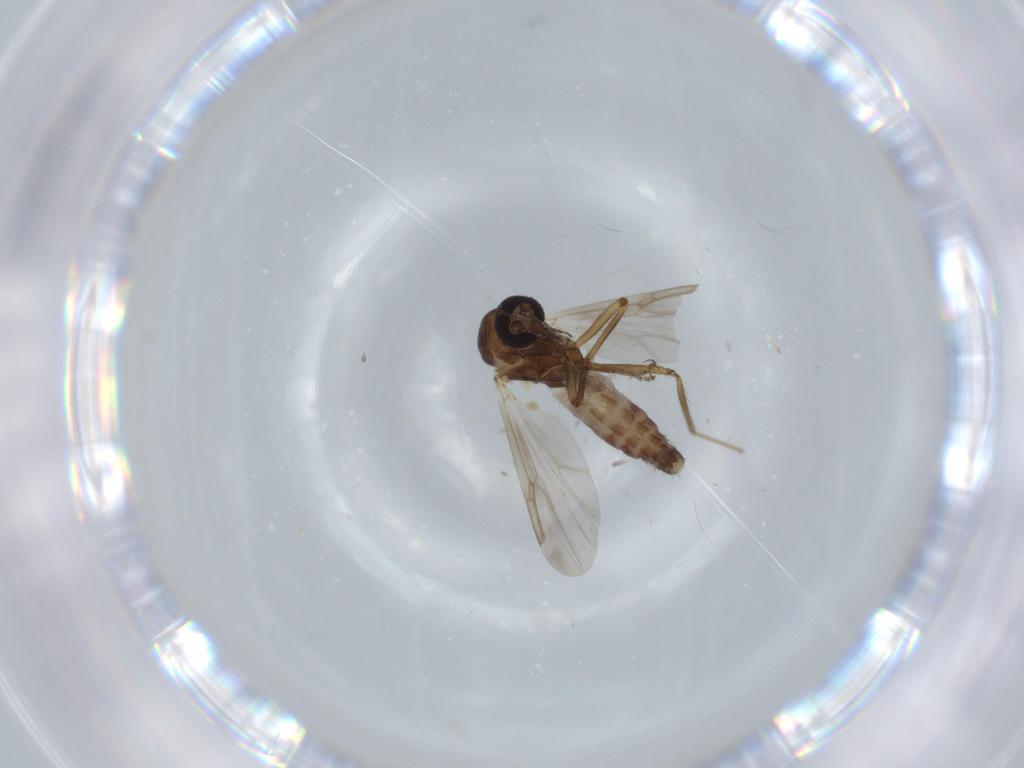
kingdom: Animalia
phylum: Arthropoda
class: Insecta
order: Diptera
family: Ceratopogonidae
